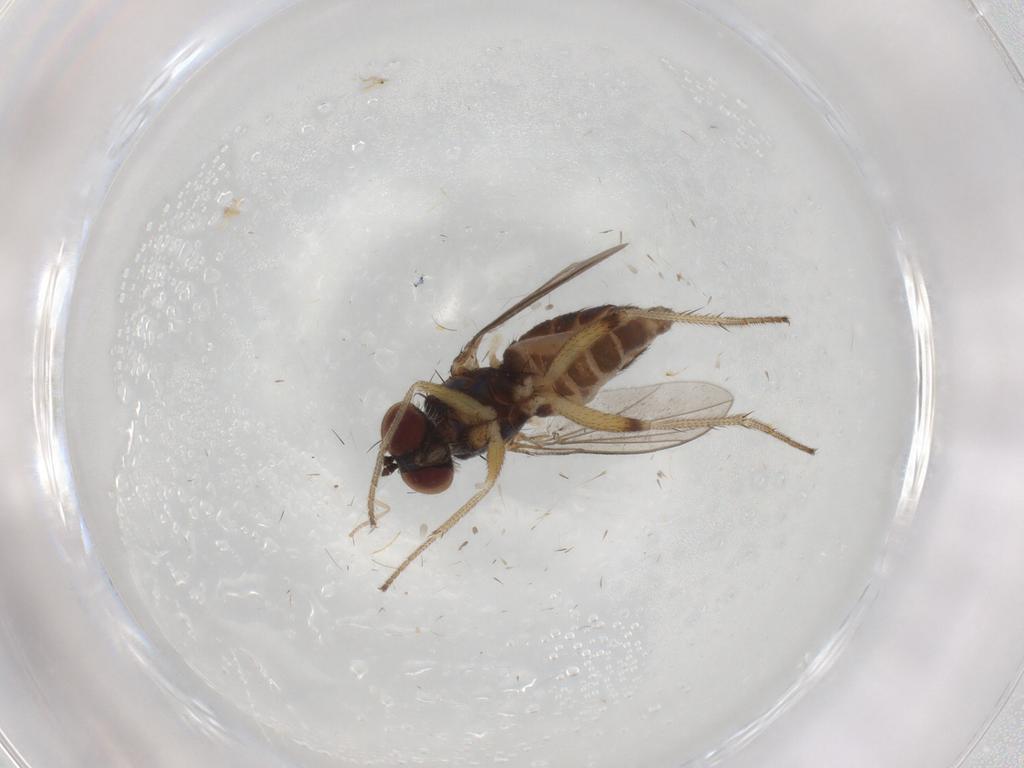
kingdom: Animalia
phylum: Arthropoda
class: Insecta
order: Diptera
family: Chironomidae
